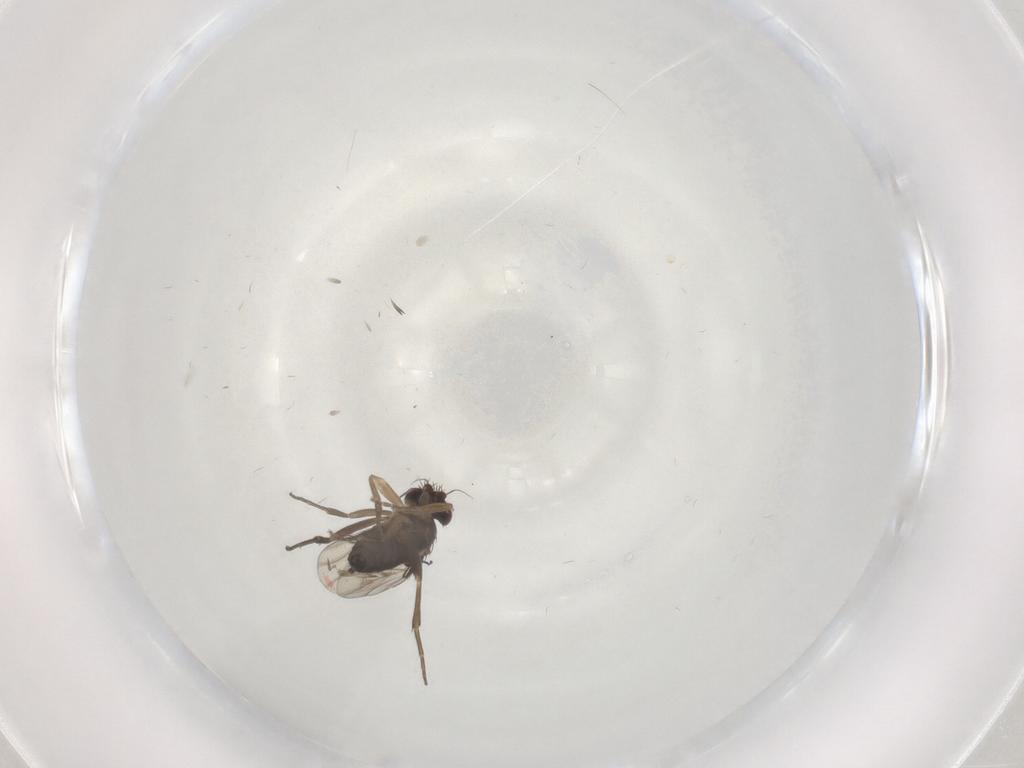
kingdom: Animalia
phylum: Arthropoda
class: Insecta
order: Diptera
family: Phoridae
